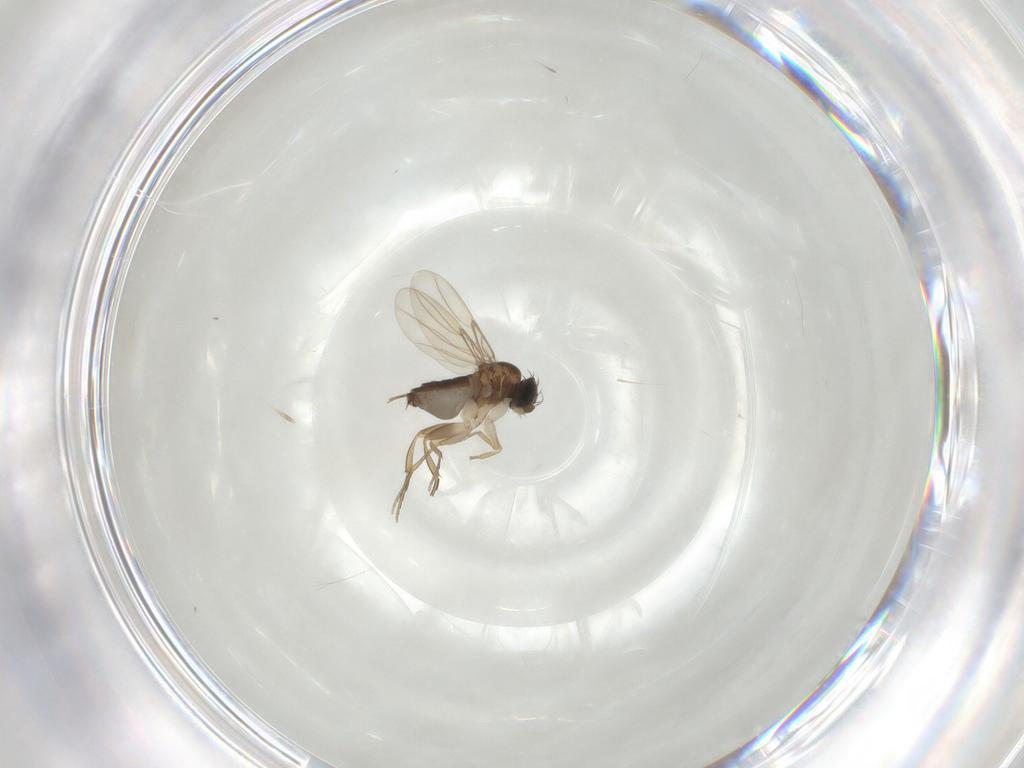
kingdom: Animalia
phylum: Arthropoda
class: Insecta
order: Diptera
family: Phoridae
